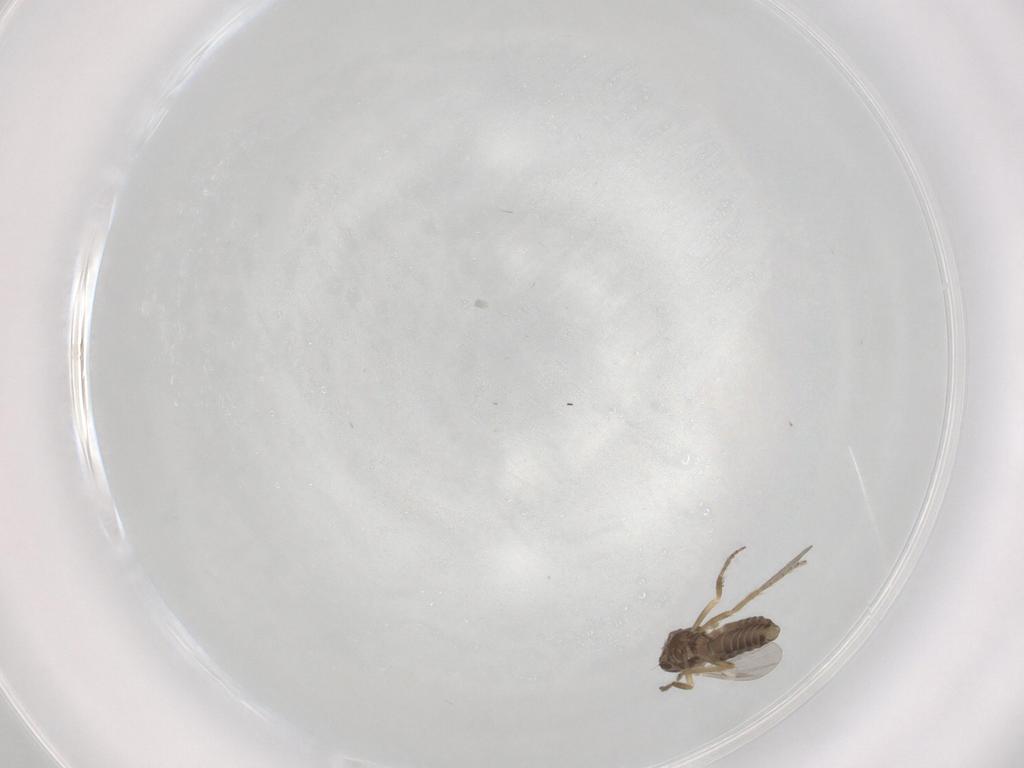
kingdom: Animalia
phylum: Arthropoda
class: Insecta
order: Diptera
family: Ceratopogonidae
